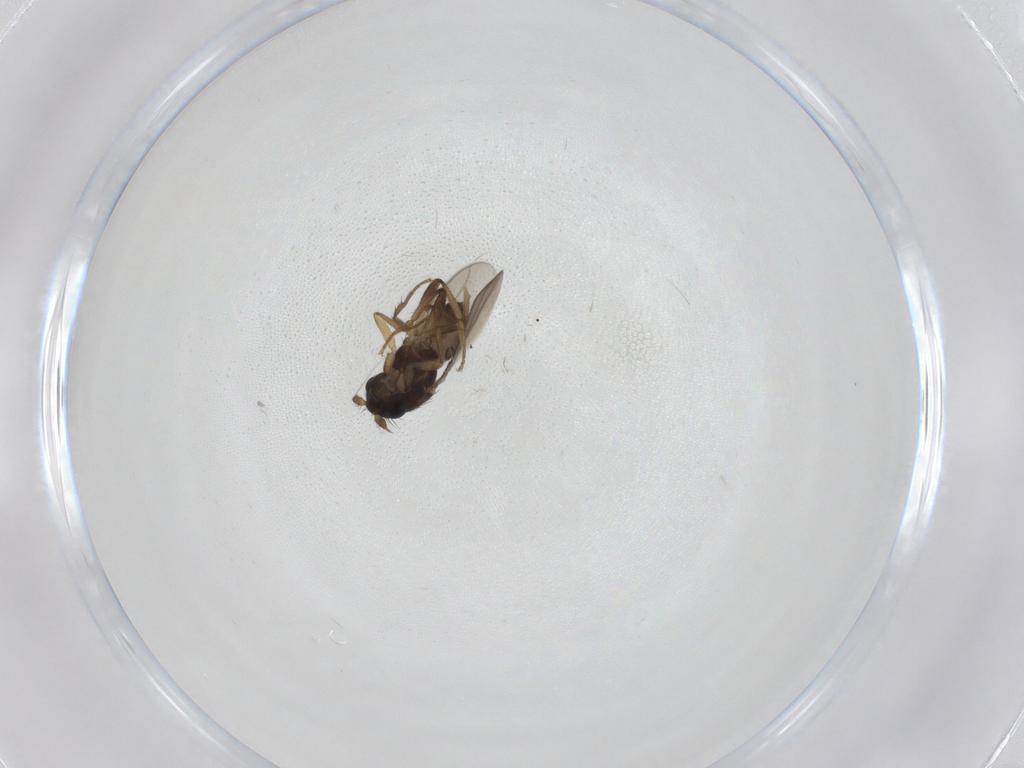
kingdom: Animalia
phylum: Arthropoda
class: Insecta
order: Diptera
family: Sphaeroceridae
